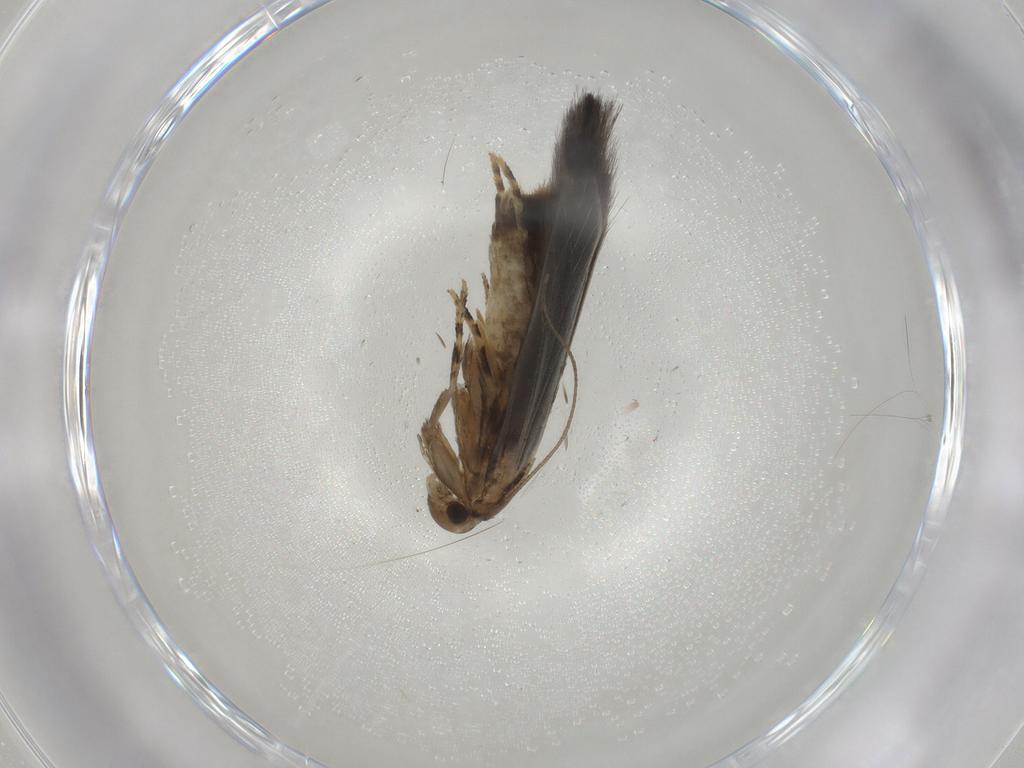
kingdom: Animalia
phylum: Arthropoda
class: Insecta
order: Lepidoptera
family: Elachistidae
